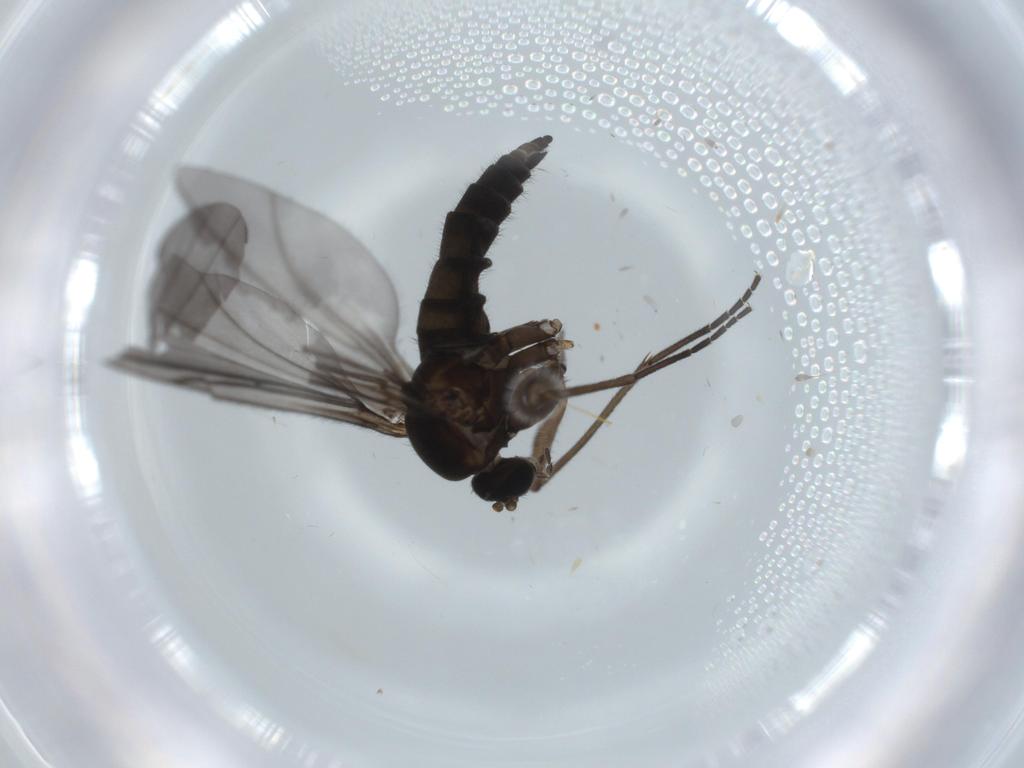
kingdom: Animalia
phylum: Arthropoda
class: Insecta
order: Diptera
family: Sciaridae
